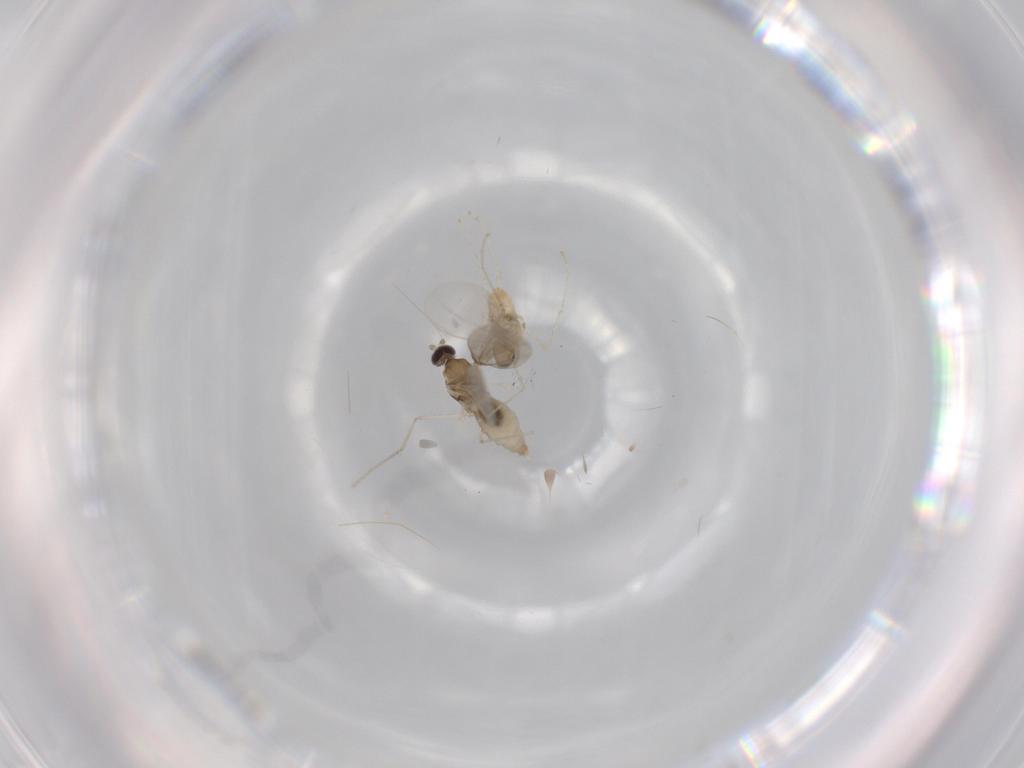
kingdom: Animalia
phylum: Arthropoda
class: Insecta
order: Diptera
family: Cecidomyiidae
